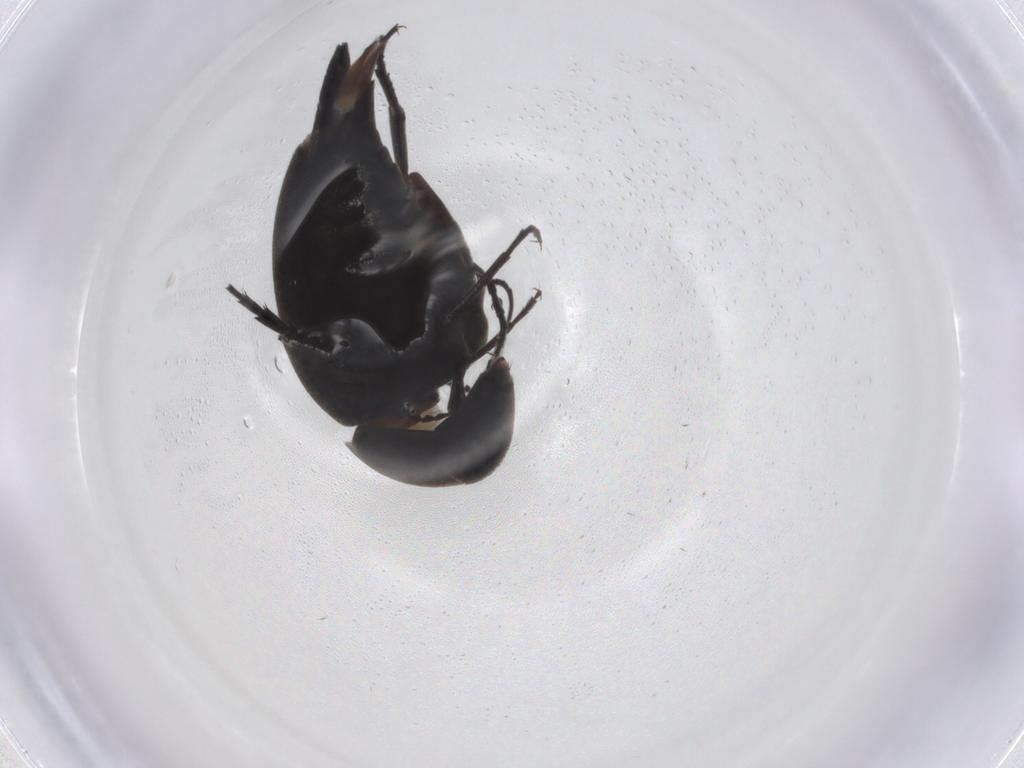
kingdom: Animalia
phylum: Arthropoda
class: Insecta
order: Coleoptera
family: Mordellidae
